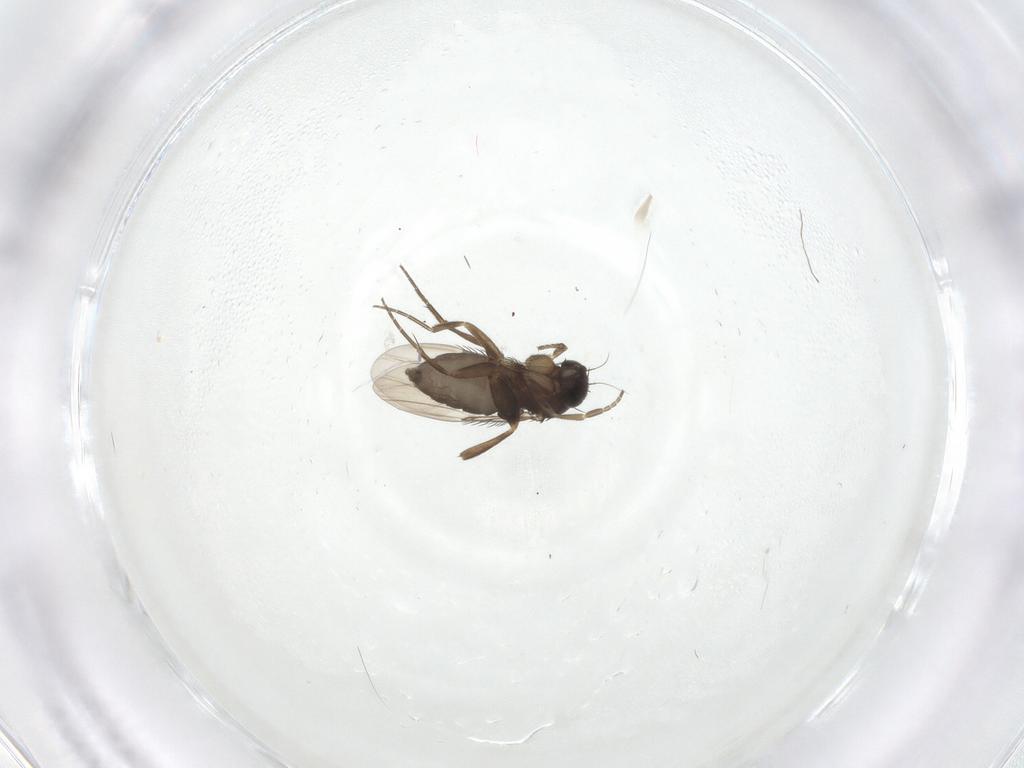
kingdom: Animalia
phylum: Arthropoda
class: Insecta
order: Diptera
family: Phoridae
